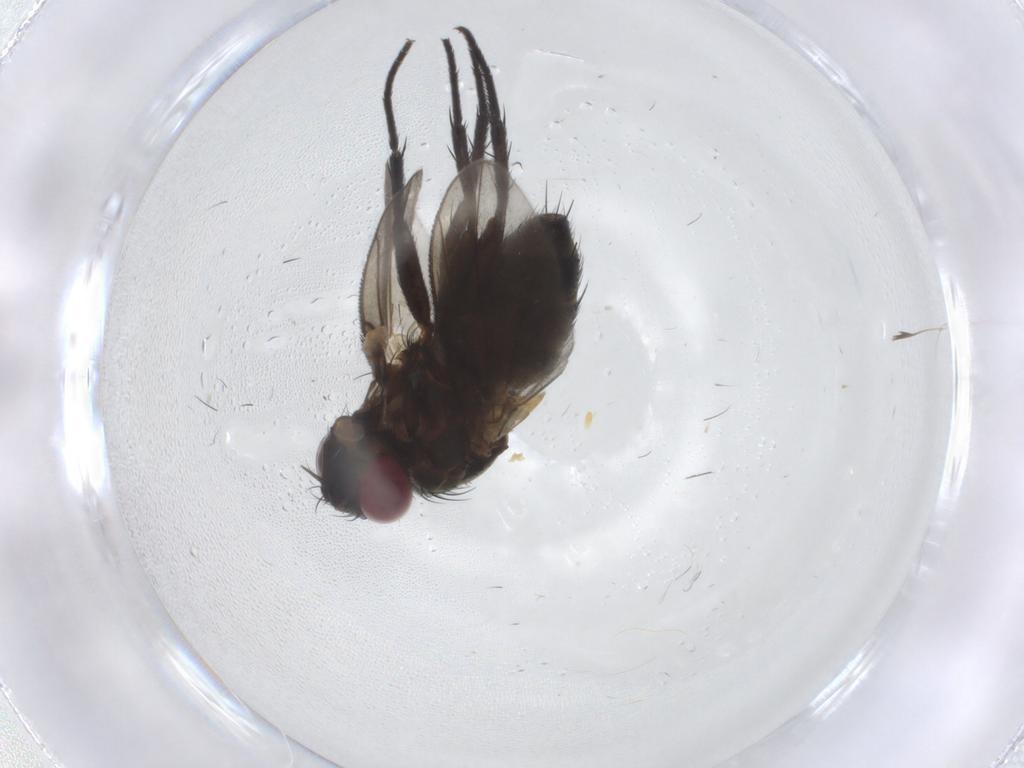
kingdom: Animalia
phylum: Arthropoda
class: Insecta
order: Diptera
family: Tachinidae
